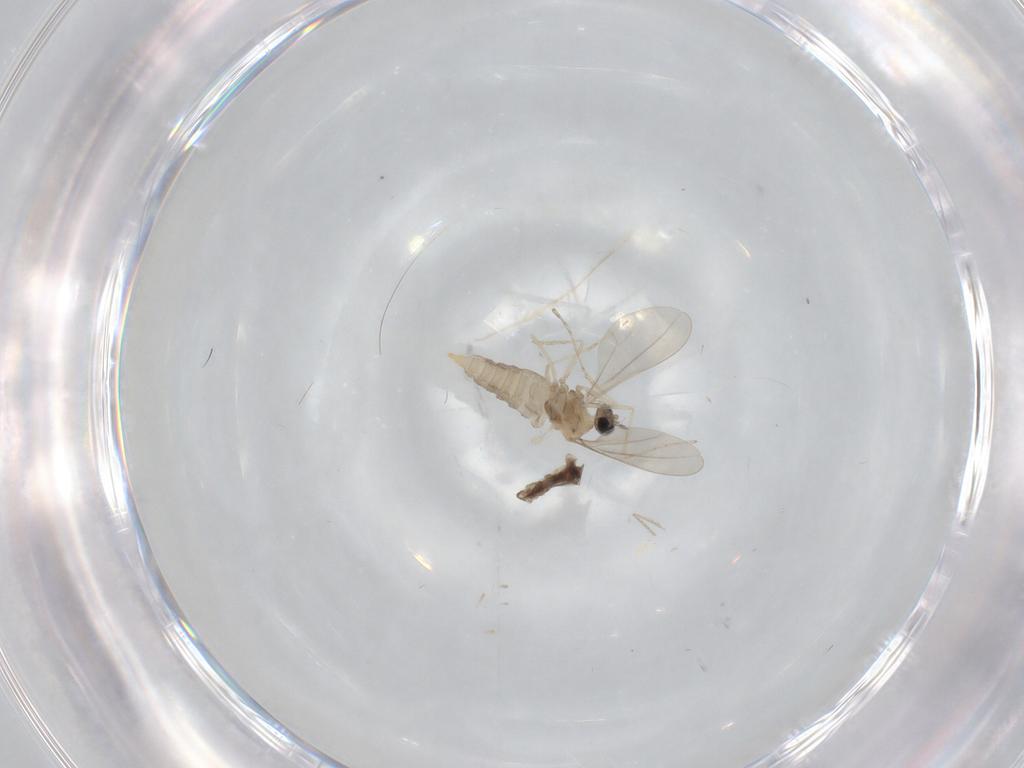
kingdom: Animalia
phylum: Arthropoda
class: Insecta
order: Diptera
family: Cecidomyiidae
